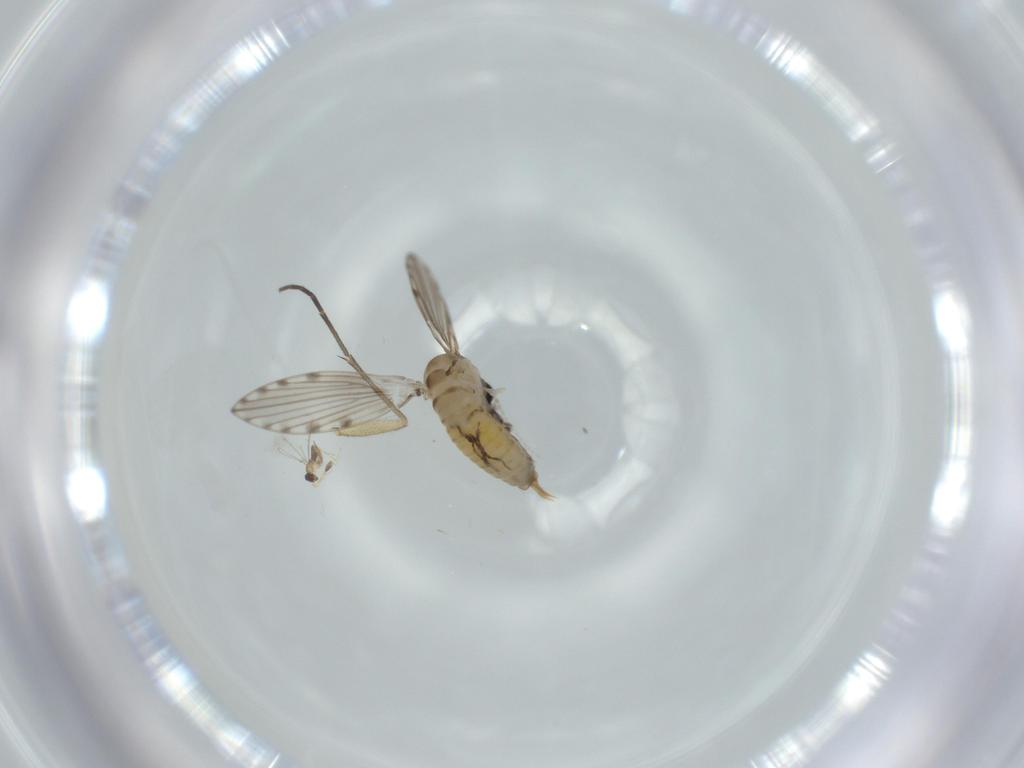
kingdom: Animalia
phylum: Arthropoda
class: Insecta
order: Diptera
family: Psychodidae
